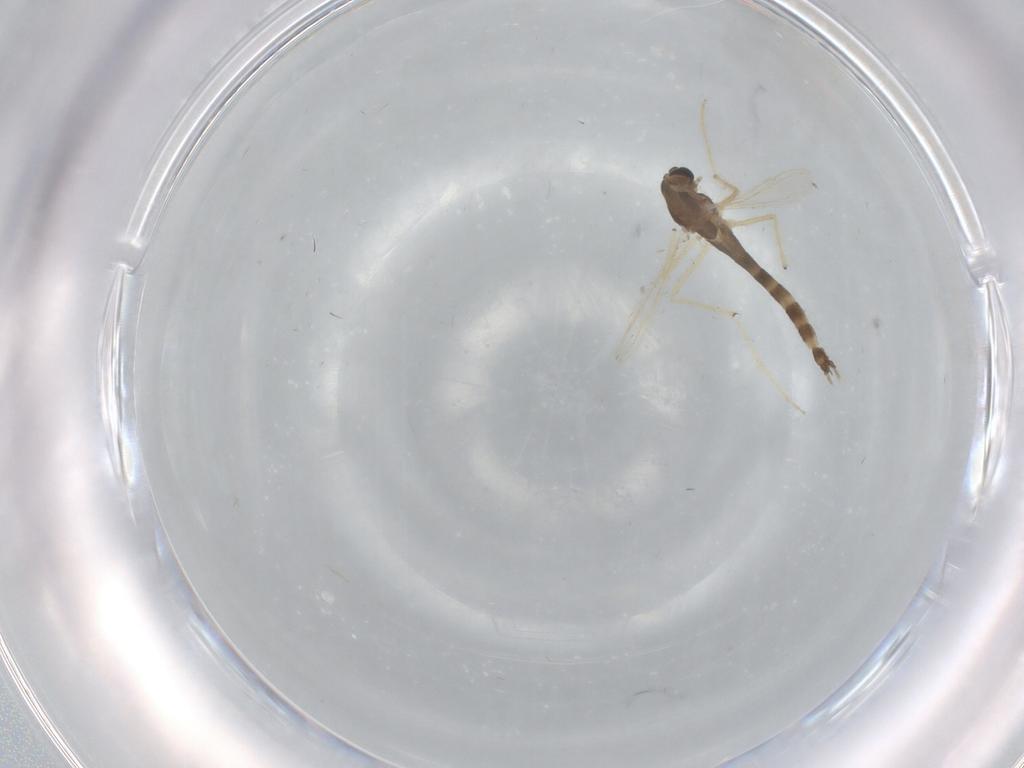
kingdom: Animalia
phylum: Arthropoda
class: Insecta
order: Diptera
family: Chironomidae
